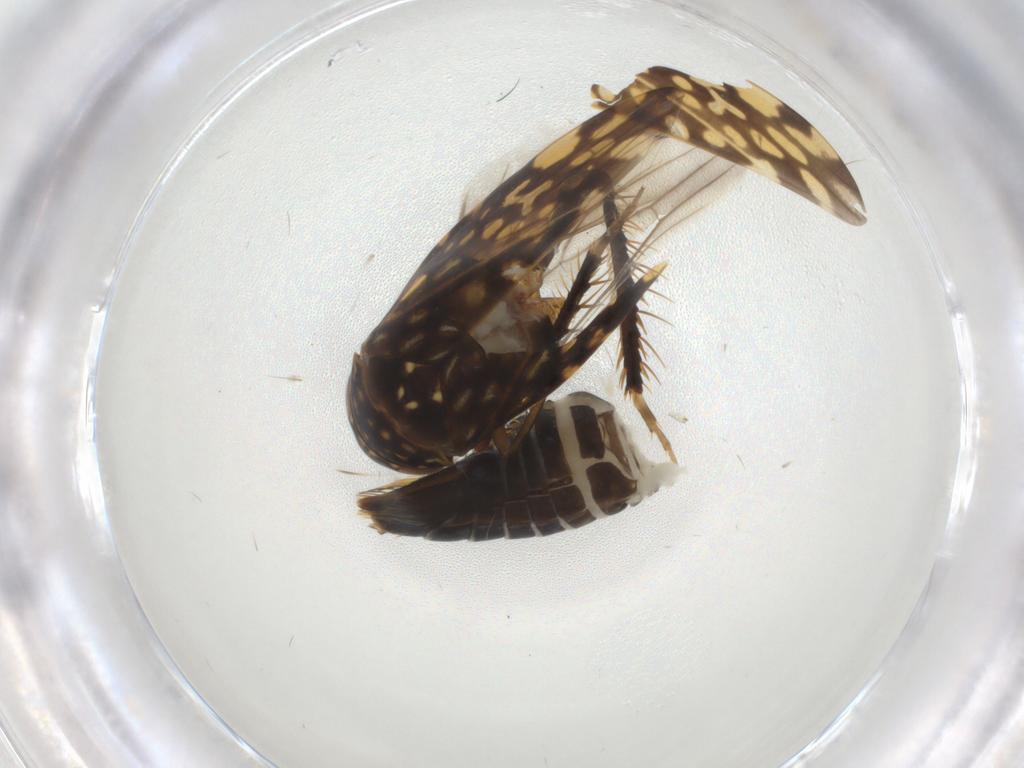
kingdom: Animalia
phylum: Arthropoda
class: Insecta
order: Hemiptera
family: Cicadellidae
